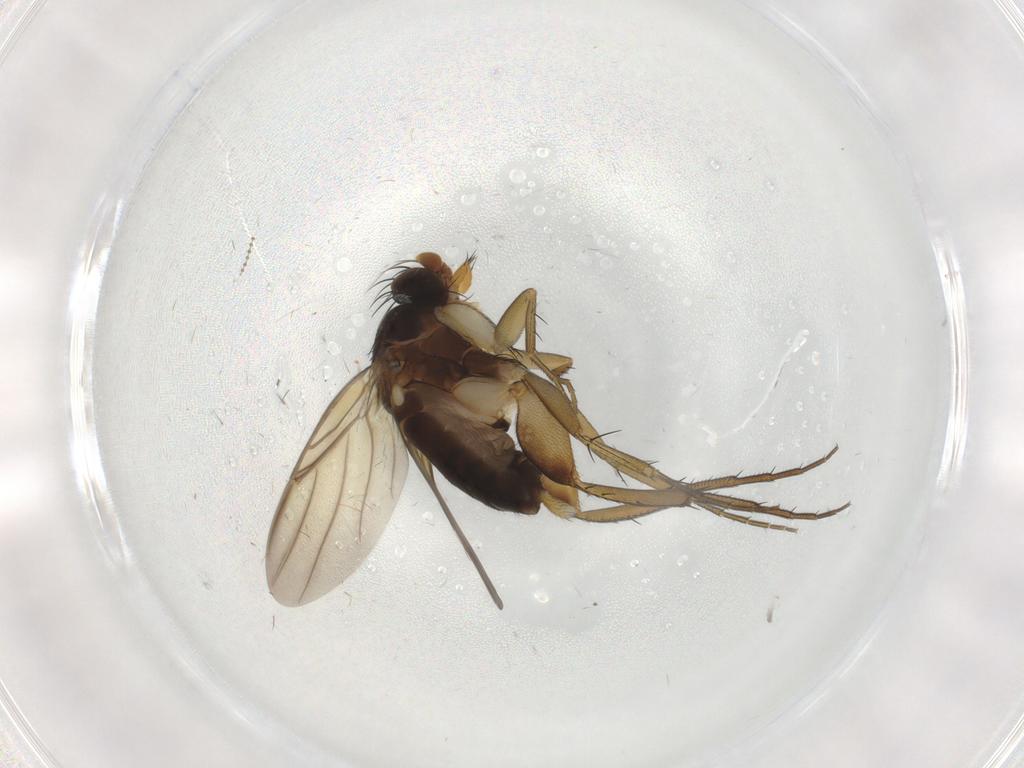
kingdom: Animalia
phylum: Arthropoda
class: Insecta
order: Diptera
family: Phoridae
